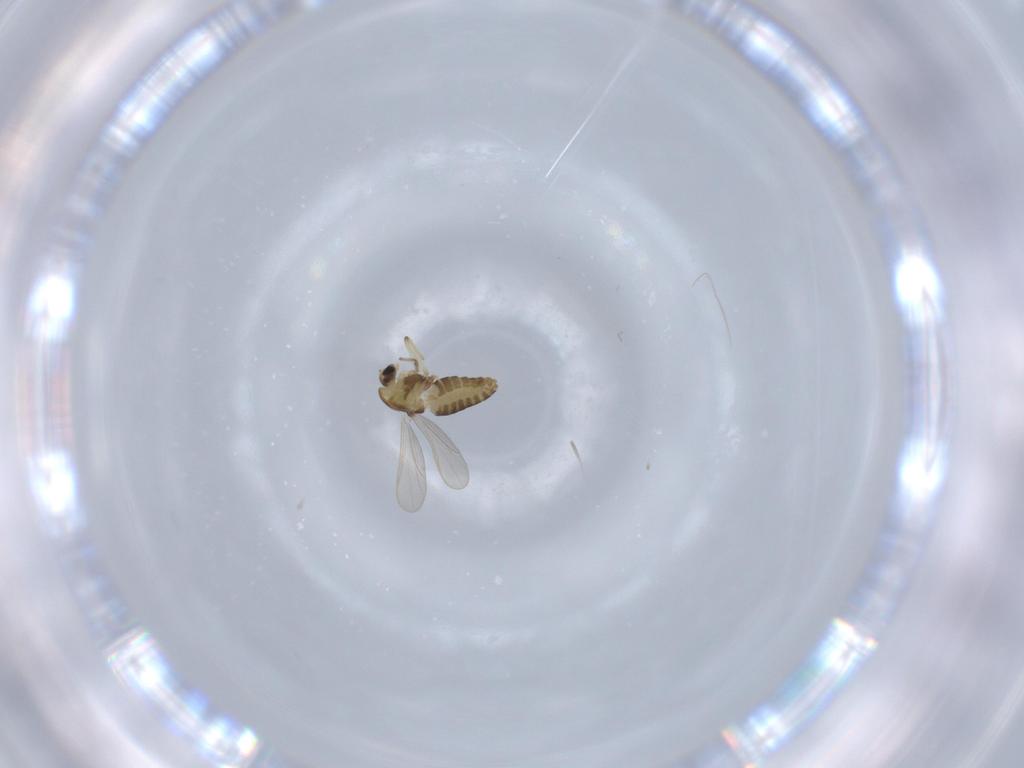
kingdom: Animalia
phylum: Arthropoda
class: Insecta
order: Diptera
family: Chironomidae
